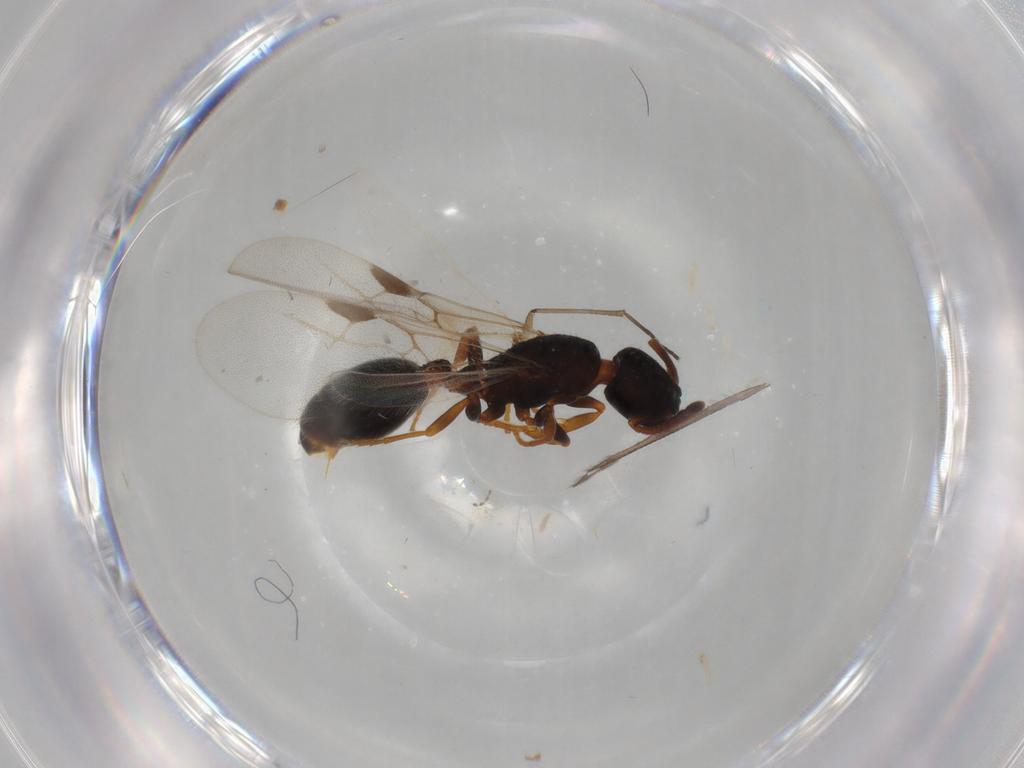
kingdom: Animalia
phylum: Arthropoda
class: Insecta
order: Hymenoptera
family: Formicidae
